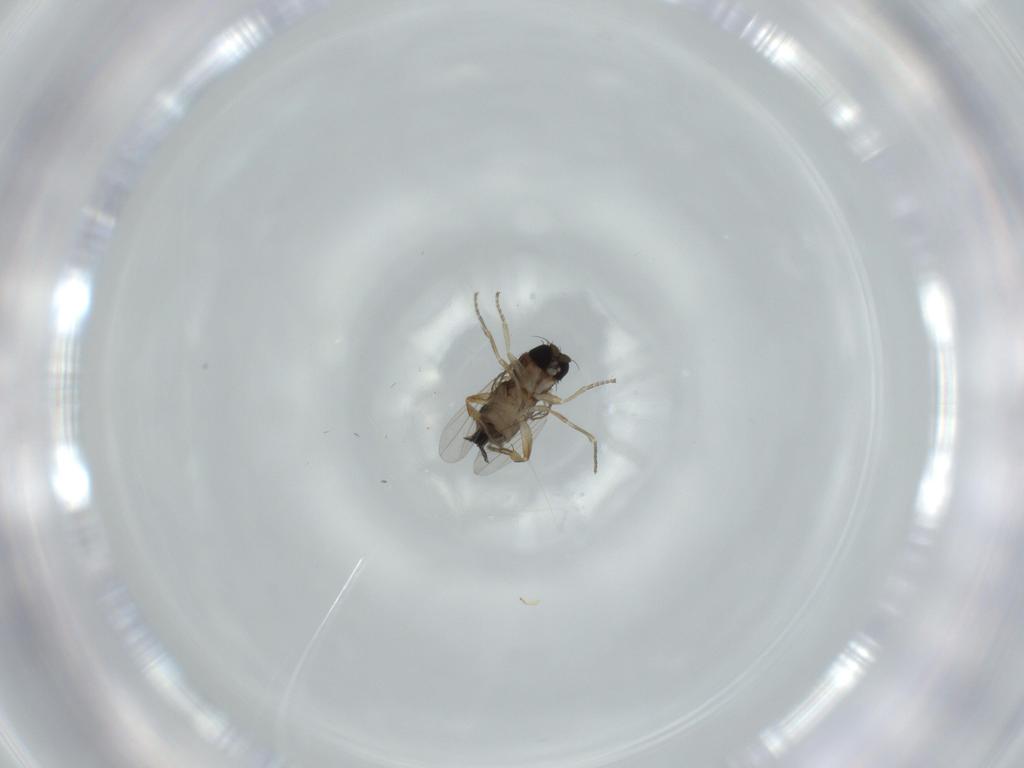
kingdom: Animalia
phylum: Arthropoda
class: Insecta
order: Diptera
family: Phoridae
